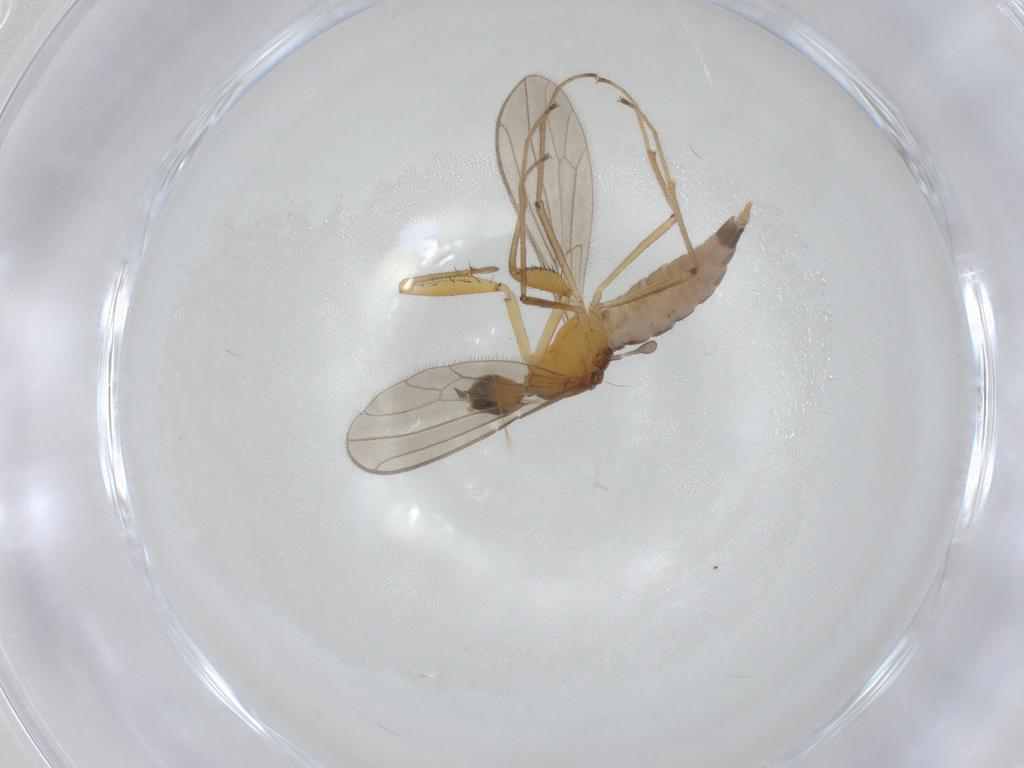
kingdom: Animalia
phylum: Arthropoda
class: Insecta
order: Diptera
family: Empididae
